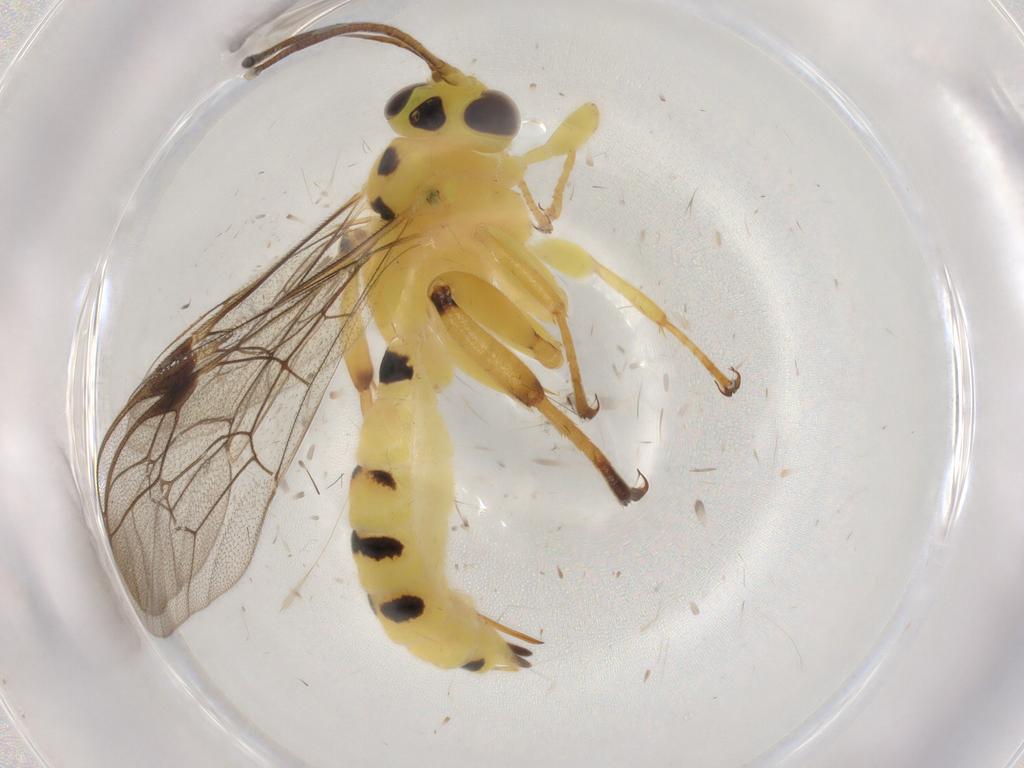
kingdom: Animalia
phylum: Arthropoda
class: Insecta
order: Hymenoptera
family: Ichneumonidae
